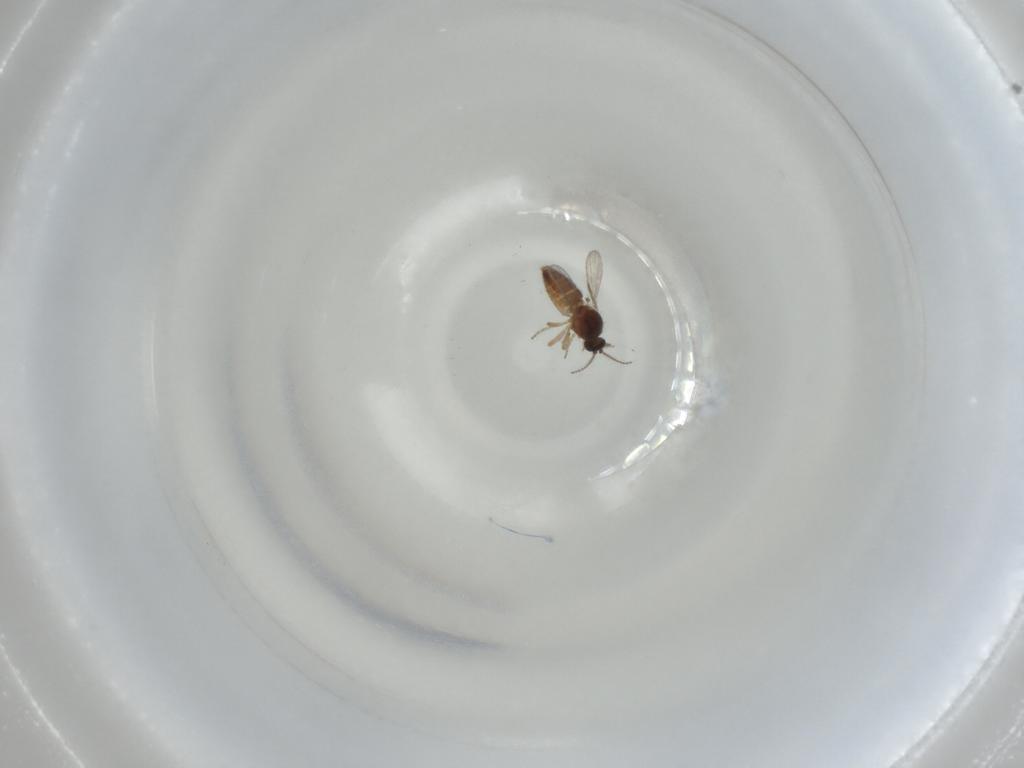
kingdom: Animalia
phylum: Arthropoda
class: Insecta
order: Diptera
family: Ceratopogonidae
